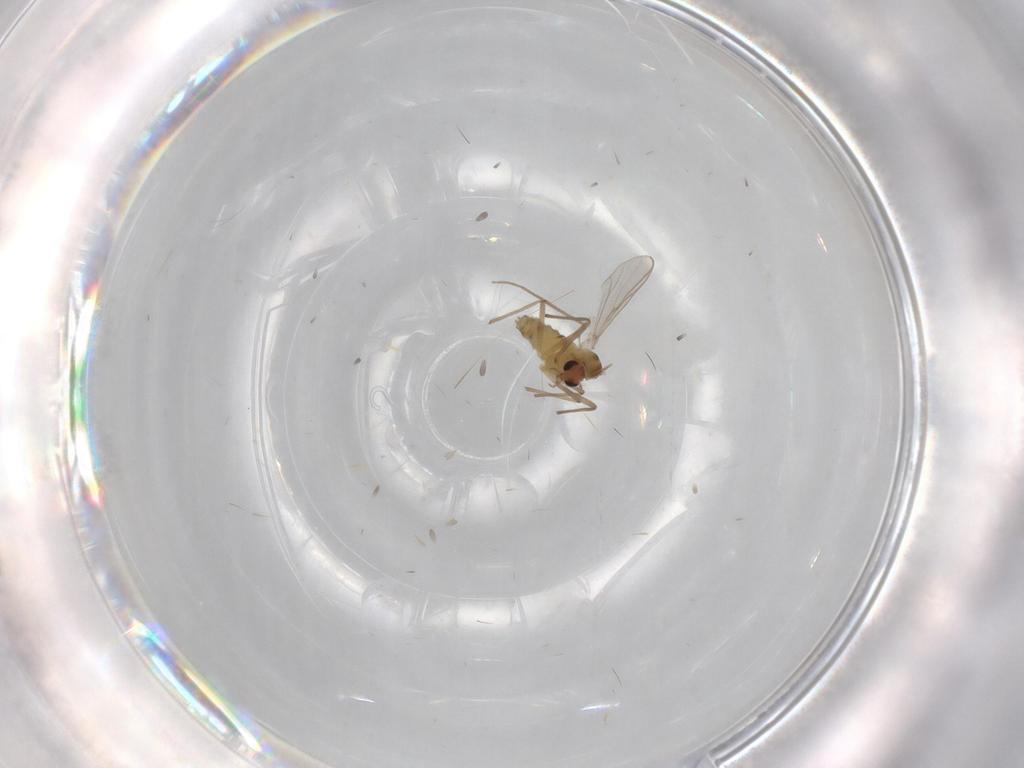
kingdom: Animalia
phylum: Arthropoda
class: Insecta
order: Diptera
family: Chironomidae
